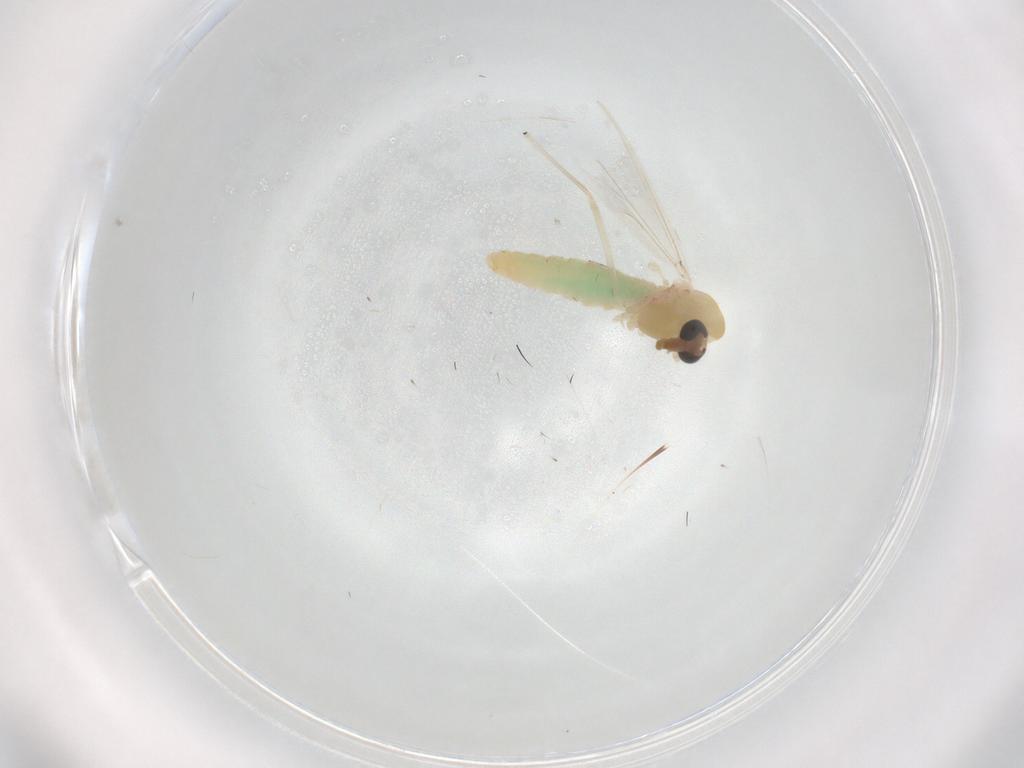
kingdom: Animalia
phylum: Arthropoda
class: Insecta
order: Diptera
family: Chironomidae
